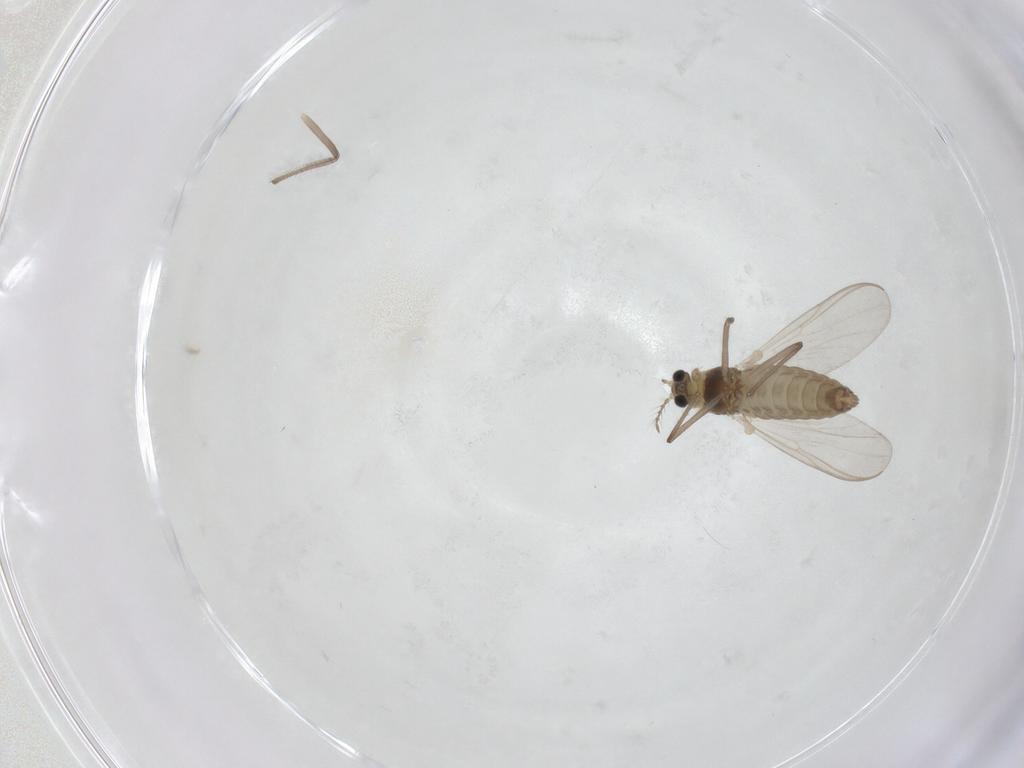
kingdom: Animalia
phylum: Arthropoda
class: Insecta
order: Diptera
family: Chironomidae
